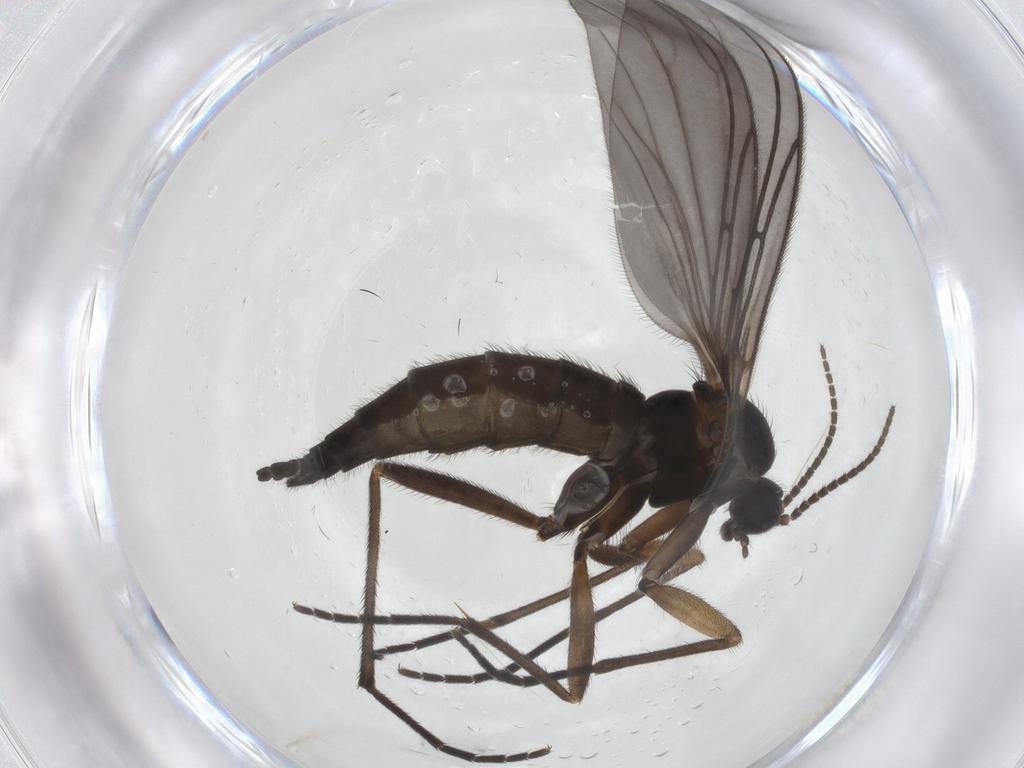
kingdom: Animalia
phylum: Arthropoda
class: Insecta
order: Diptera
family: Sciaridae
